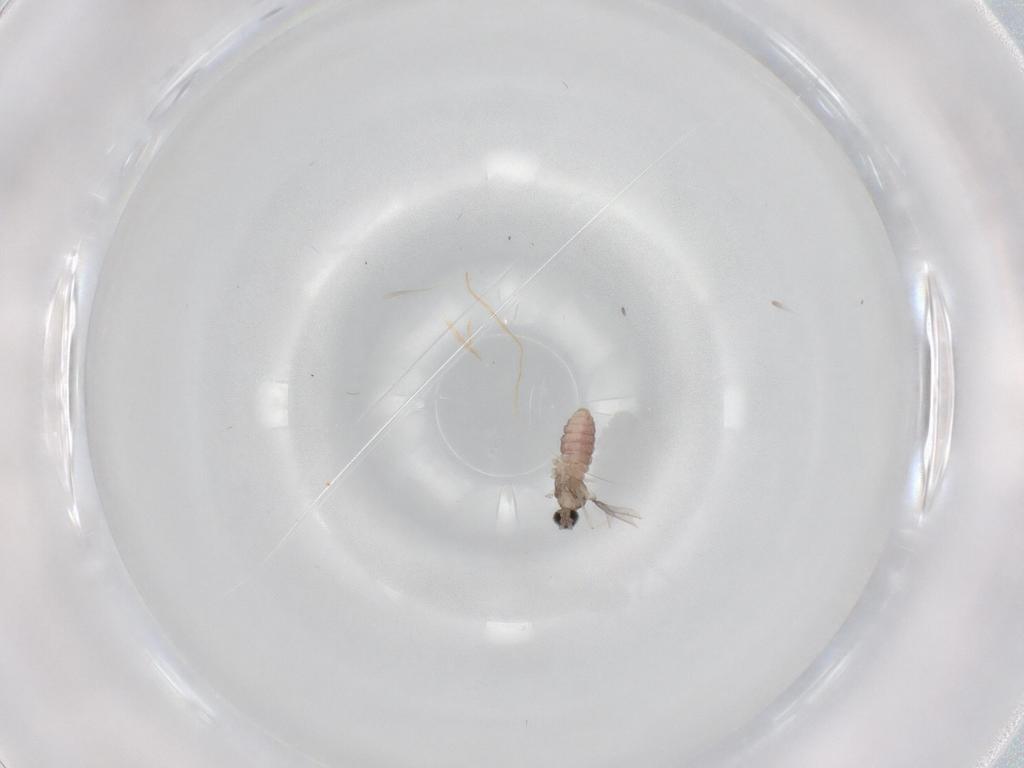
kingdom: Animalia
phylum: Arthropoda
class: Insecta
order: Diptera
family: Cecidomyiidae
